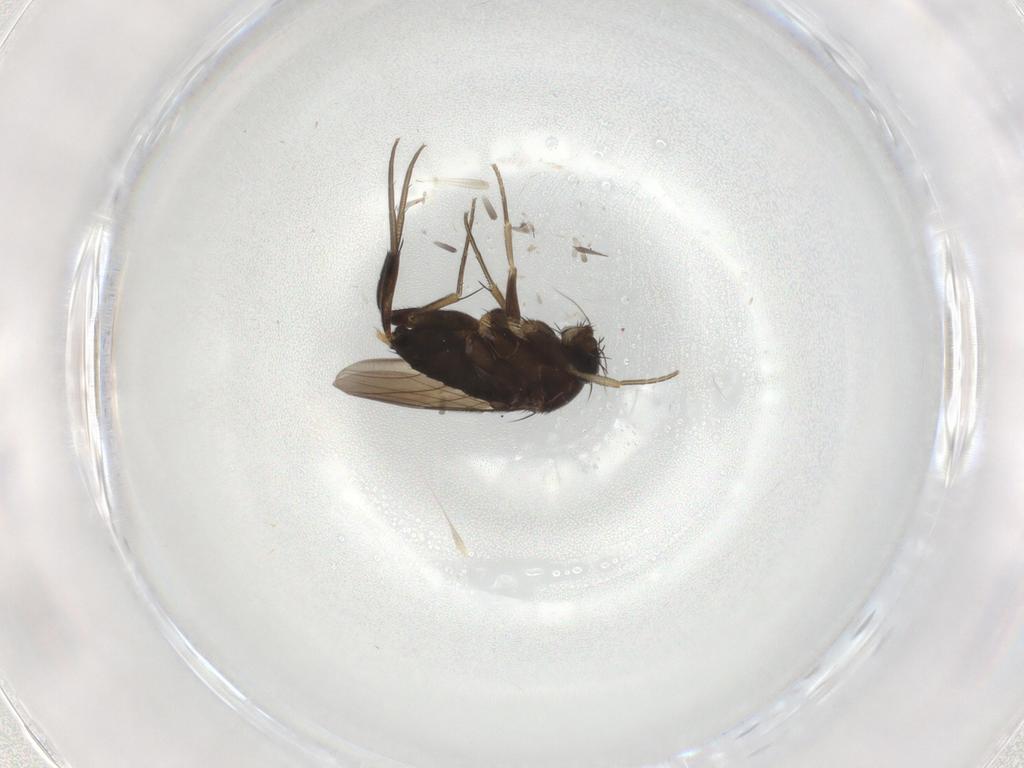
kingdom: Animalia
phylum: Arthropoda
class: Insecta
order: Diptera
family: Phoridae
